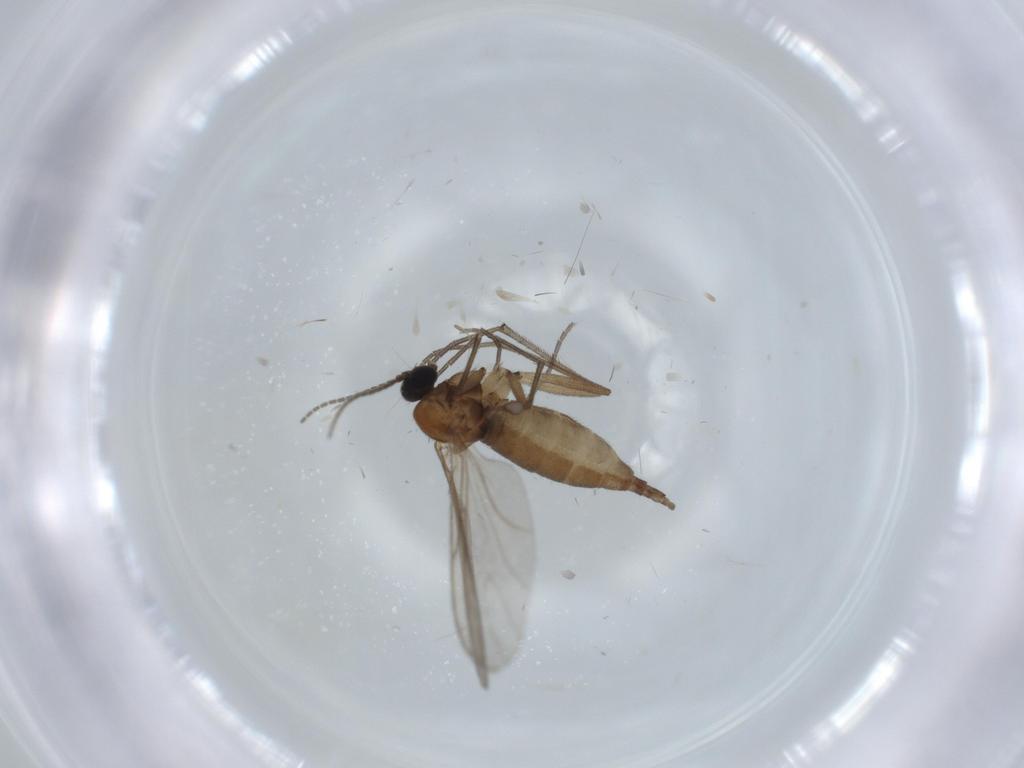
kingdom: Animalia
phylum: Arthropoda
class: Insecta
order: Diptera
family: Sciaridae
